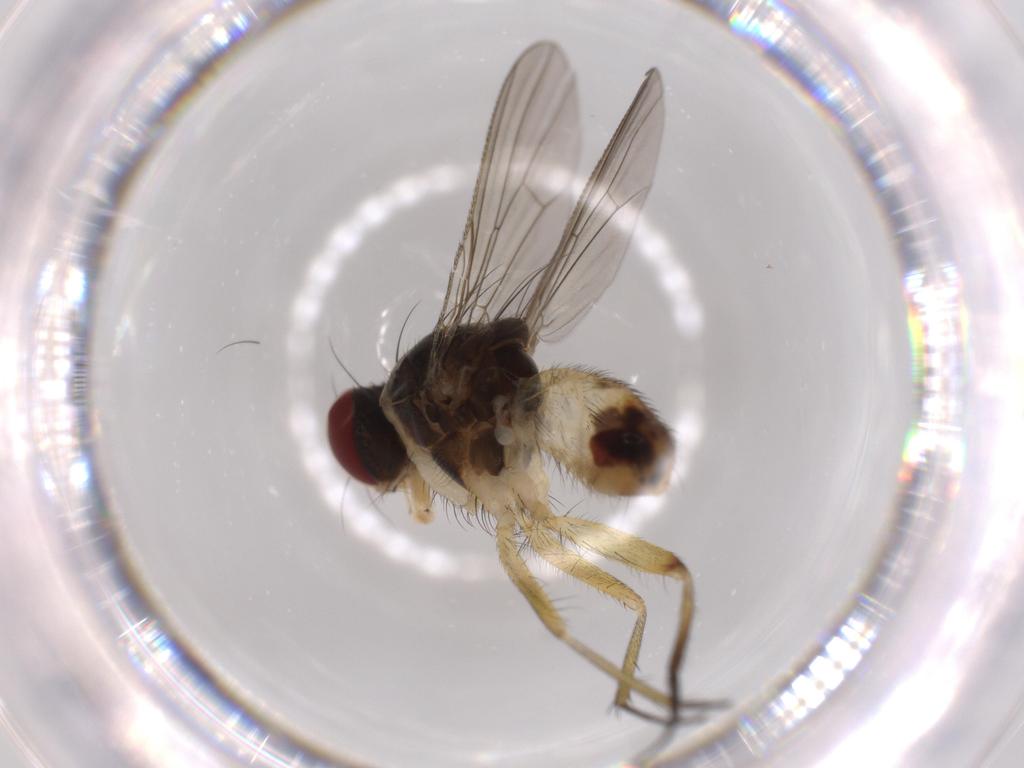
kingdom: Animalia
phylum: Arthropoda
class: Insecta
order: Diptera
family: Chironomidae
